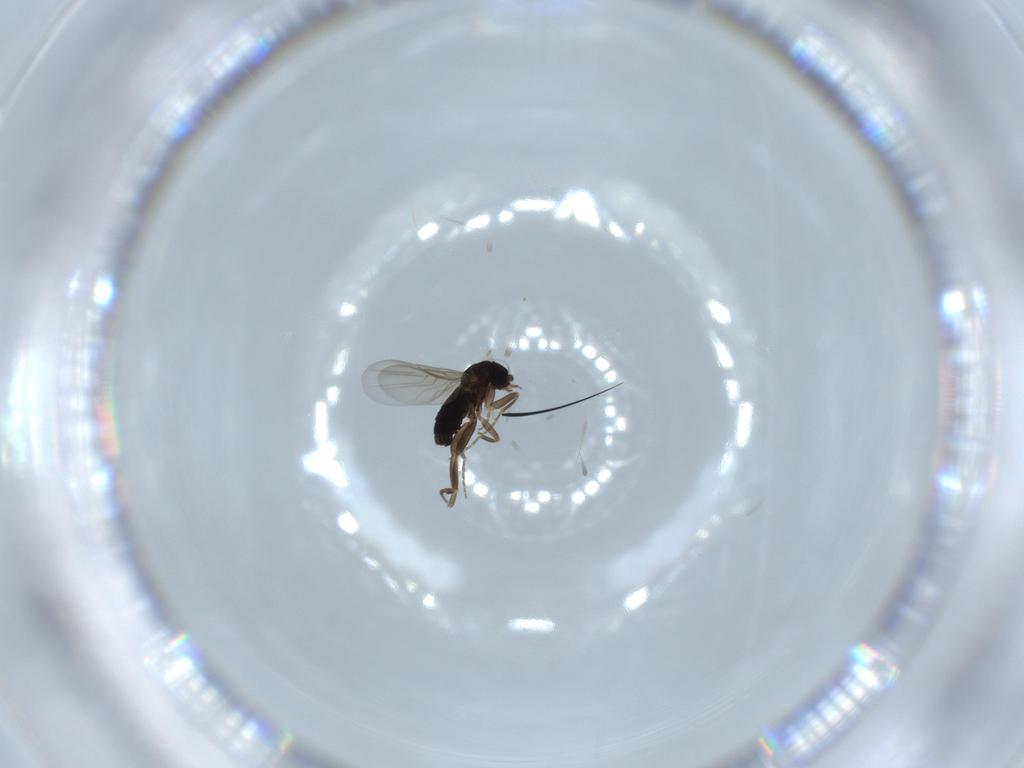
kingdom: Animalia
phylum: Arthropoda
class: Insecta
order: Diptera
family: Phoridae
